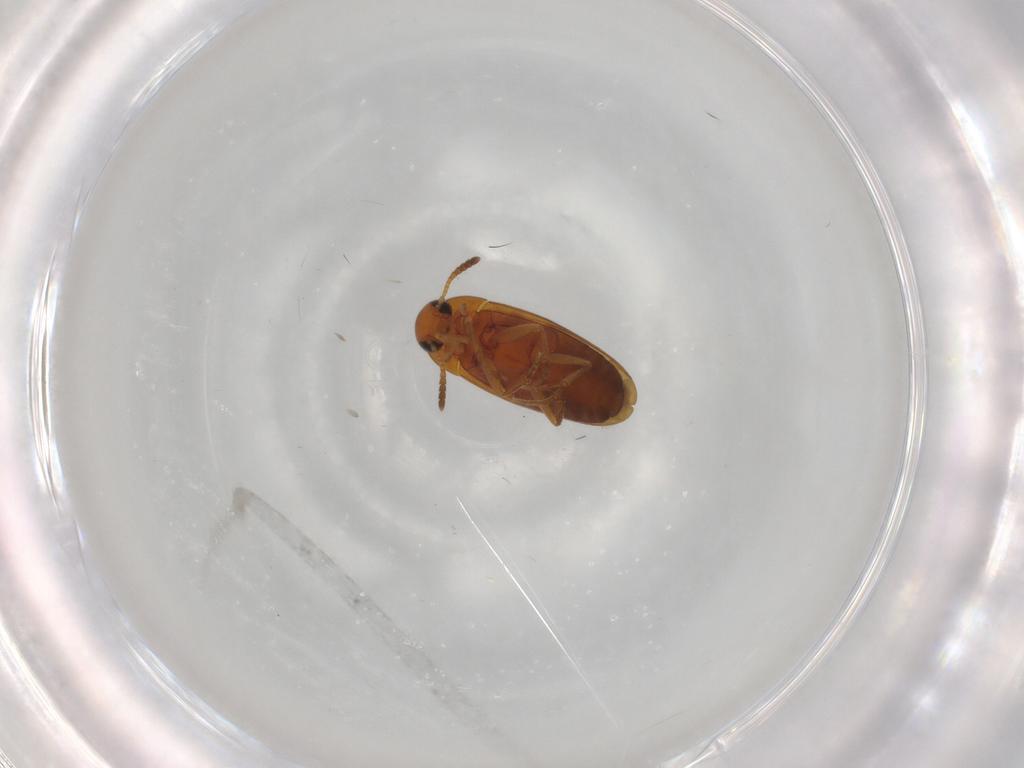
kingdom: Animalia
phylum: Arthropoda
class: Insecta
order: Coleoptera
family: Scraptiidae
